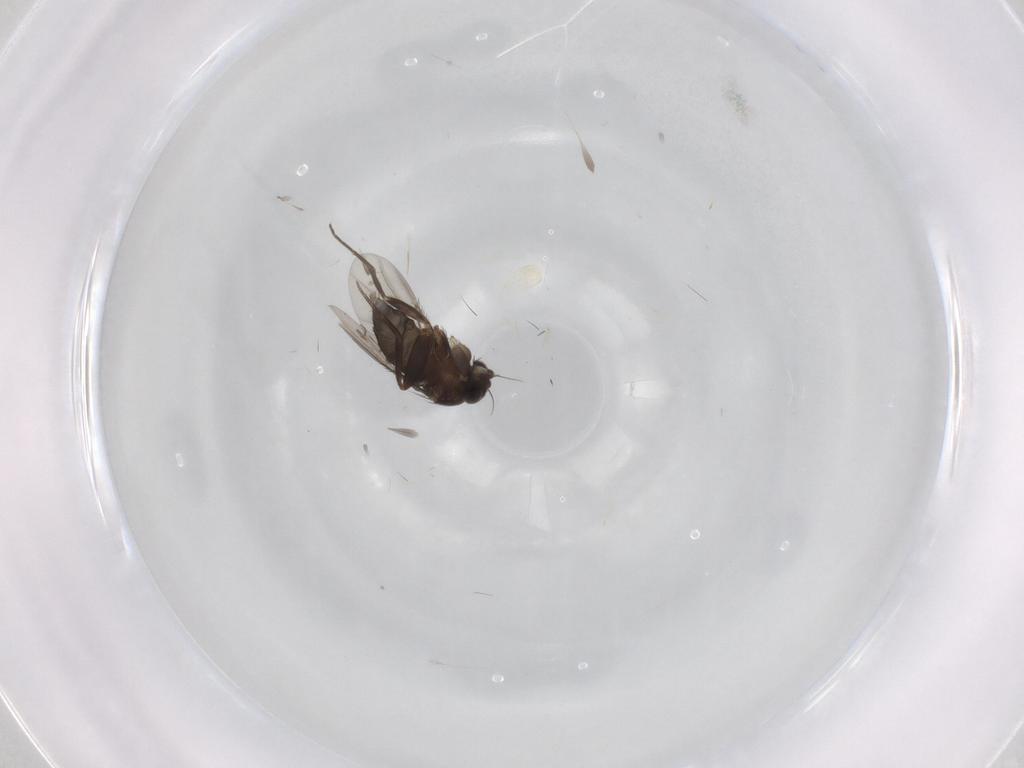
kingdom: Animalia
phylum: Arthropoda
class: Insecta
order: Diptera
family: Phoridae
